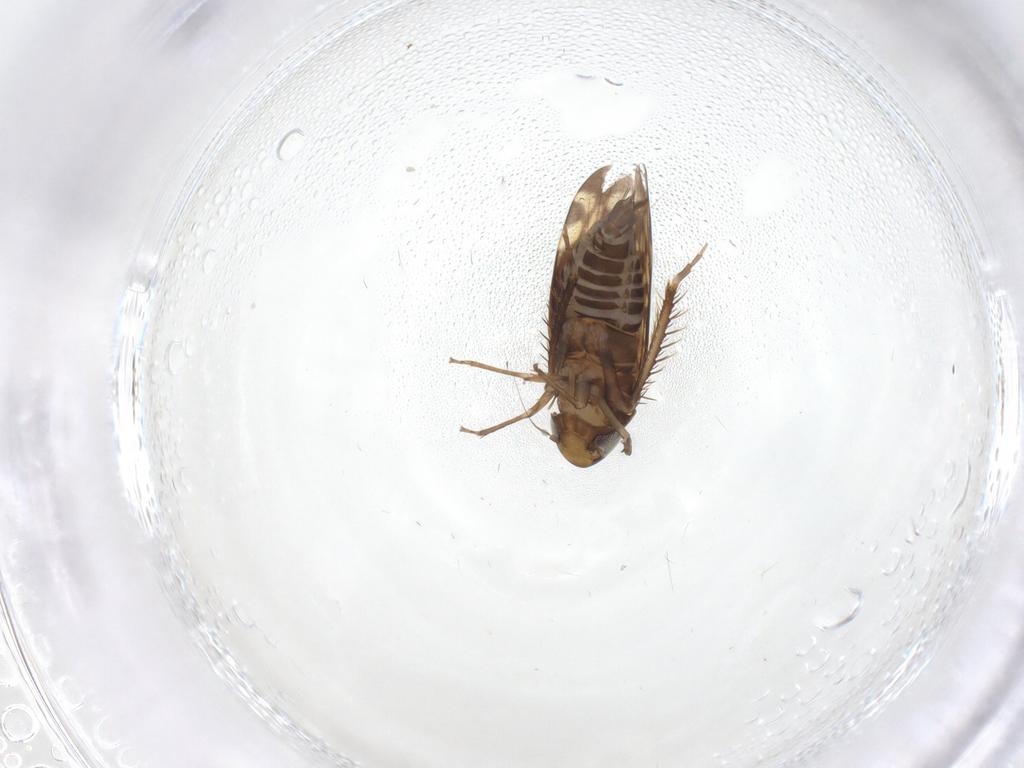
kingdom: Animalia
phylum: Arthropoda
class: Insecta
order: Hemiptera
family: Cicadellidae
